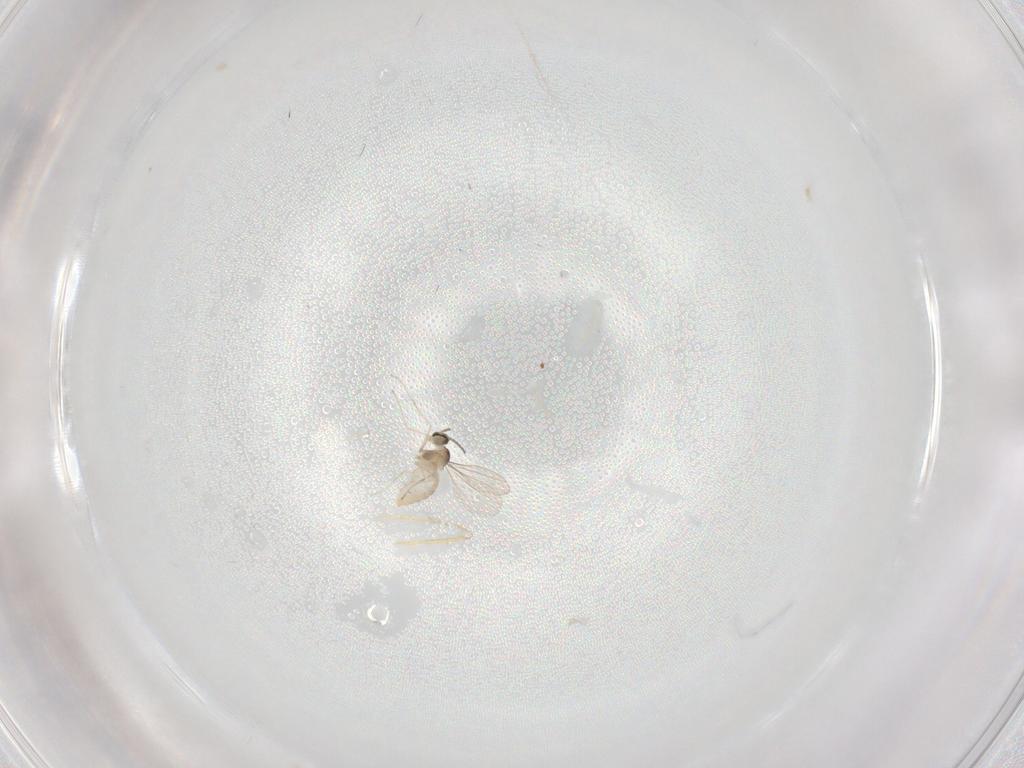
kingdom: Animalia
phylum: Arthropoda
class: Insecta
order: Diptera
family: Cecidomyiidae
